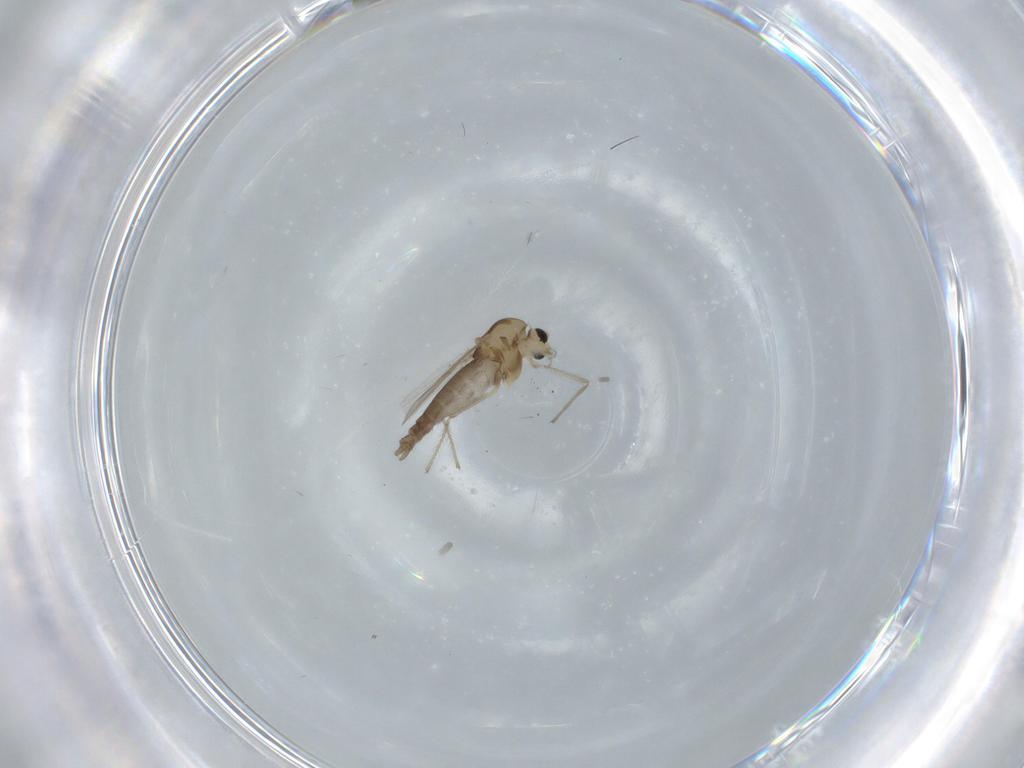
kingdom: Animalia
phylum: Arthropoda
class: Insecta
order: Diptera
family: Chironomidae
